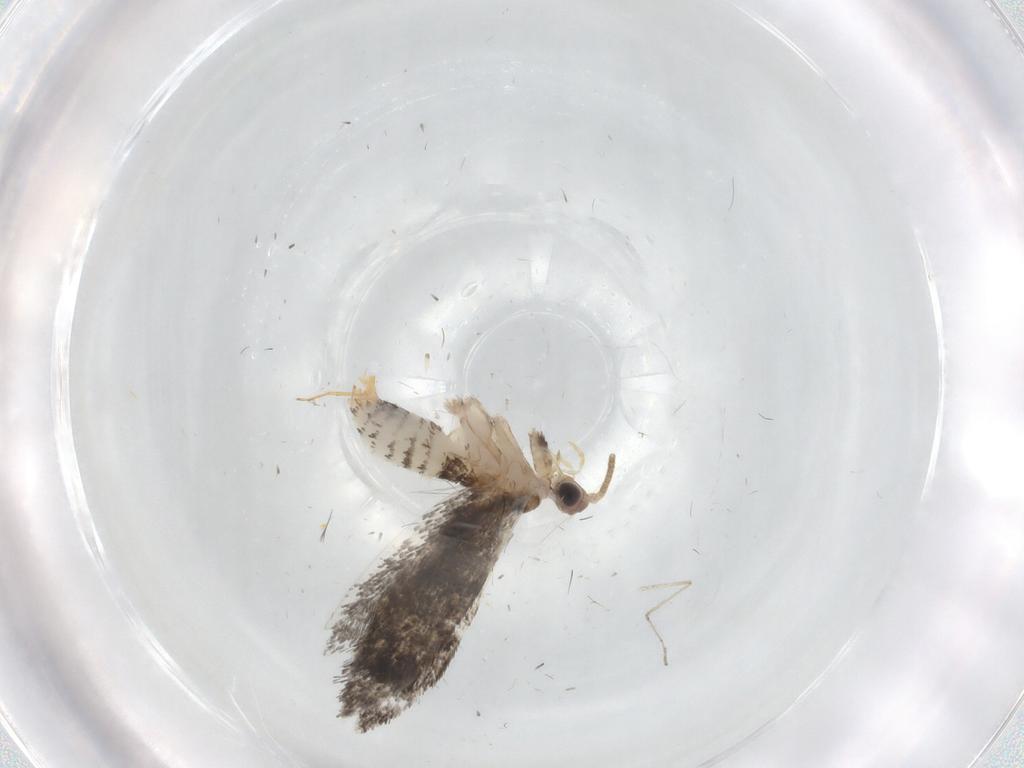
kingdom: Animalia
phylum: Arthropoda
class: Insecta
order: Lepidoptera
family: Tineidae
